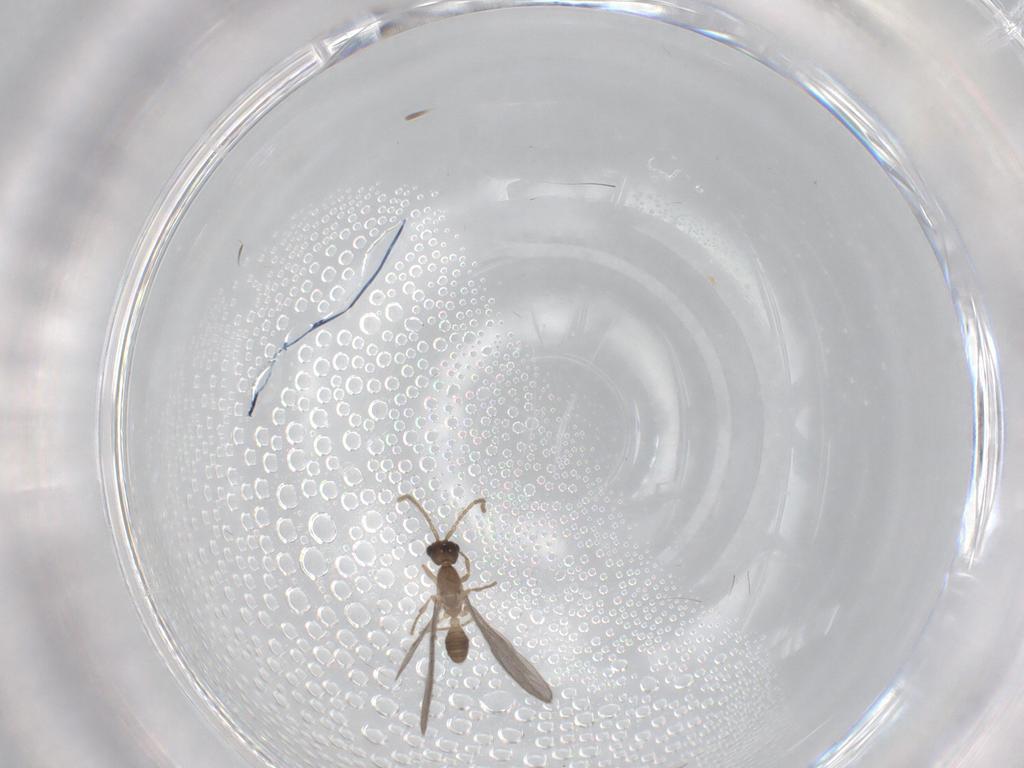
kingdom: Animalia
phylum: Arthropoda
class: Insecta
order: Hymenoptera
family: Formicidae
